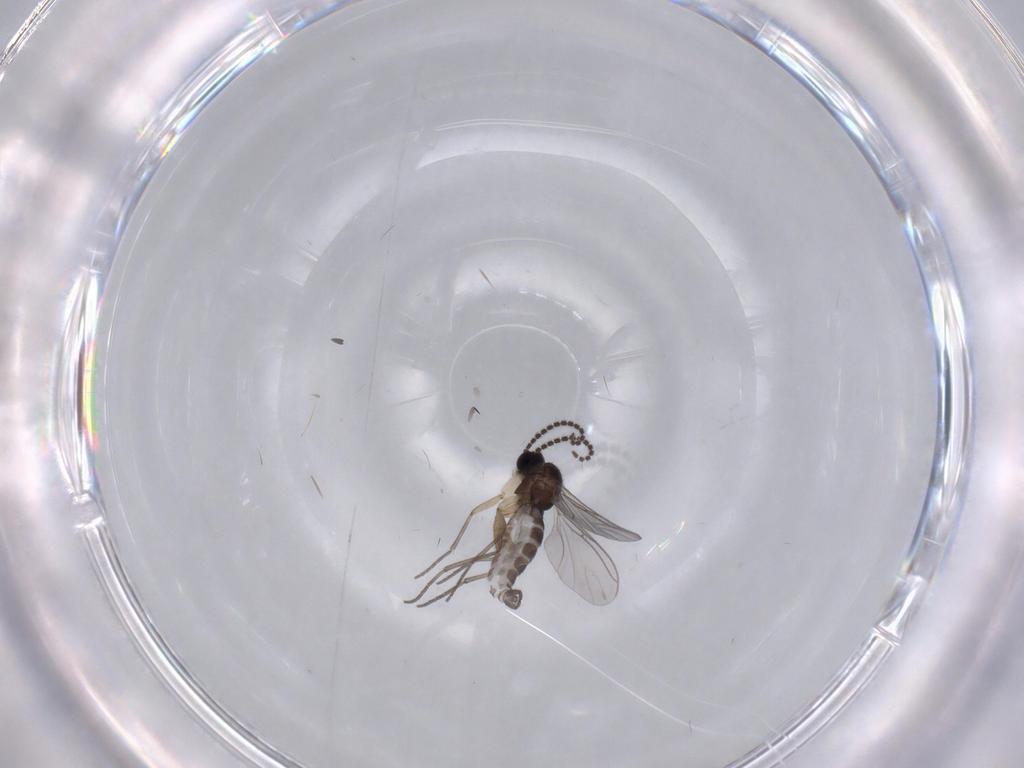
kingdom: Animalia
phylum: Arthropoda
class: Insecta
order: Diptera
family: Sciaridae
